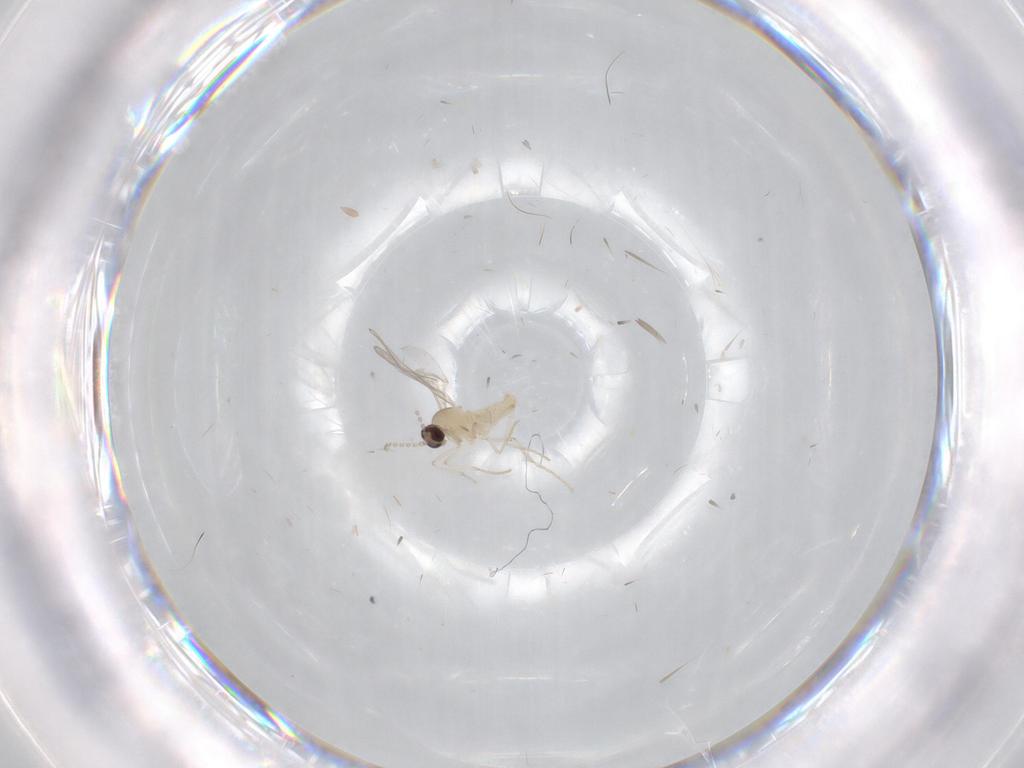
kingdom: Animalia
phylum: Arthropoda
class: Insecta
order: Diptera
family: Cecidomyiidae
